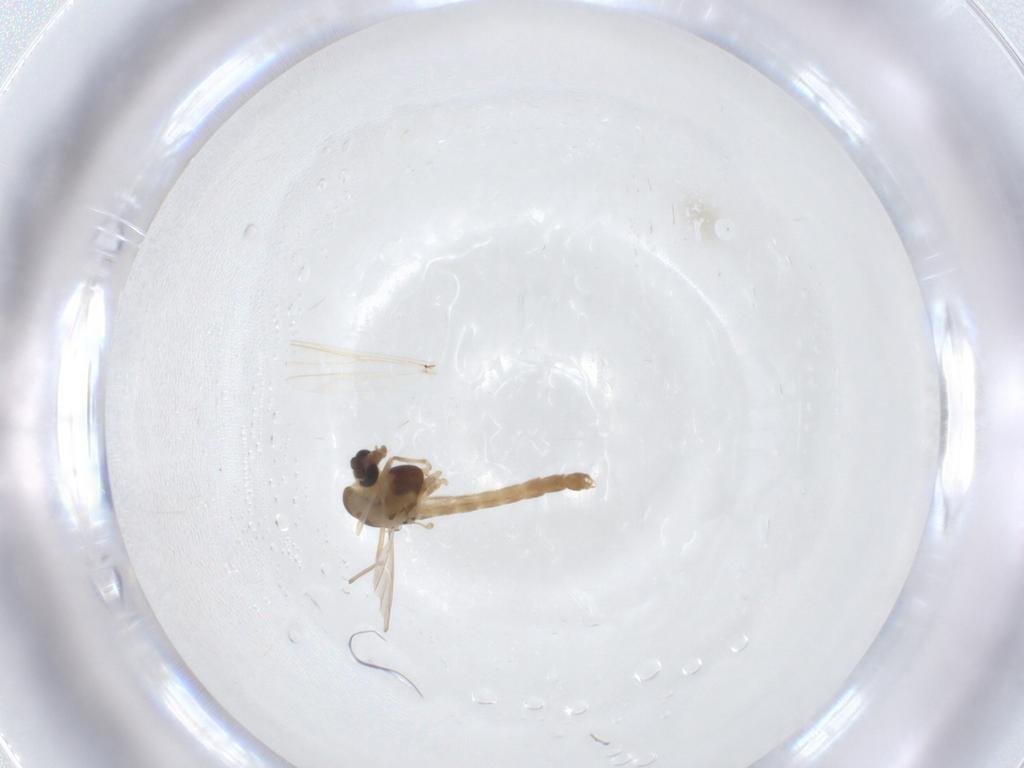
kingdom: Animalia
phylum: Arthropoda
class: Insecta
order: Diptera
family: Chironomidae
